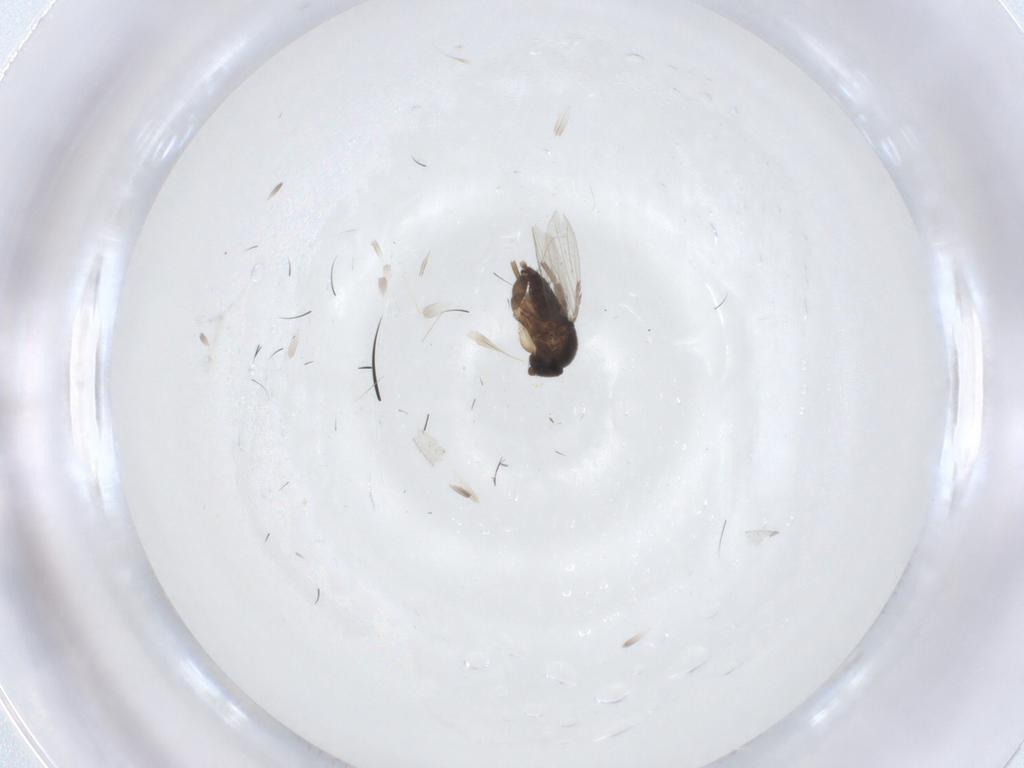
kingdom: Animalia
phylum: Arthropoda
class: Insecta
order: Diptera
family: Phoridae
